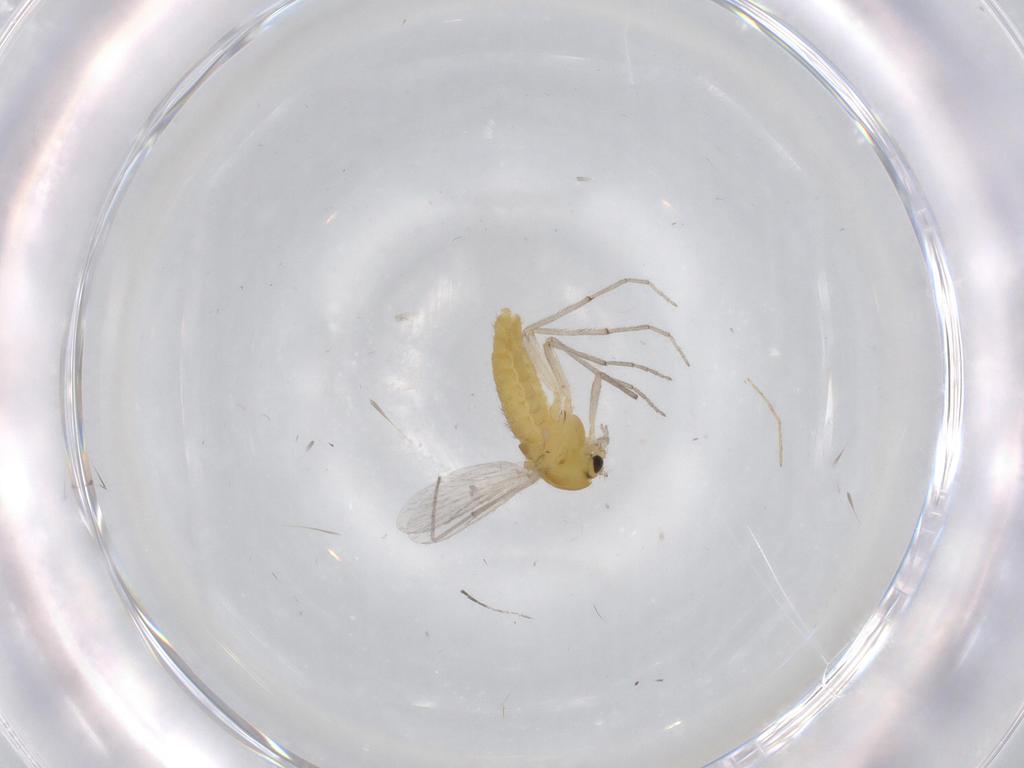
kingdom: Animalia
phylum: Arthropoda
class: Insecta
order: Diptera
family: Chironomidae
